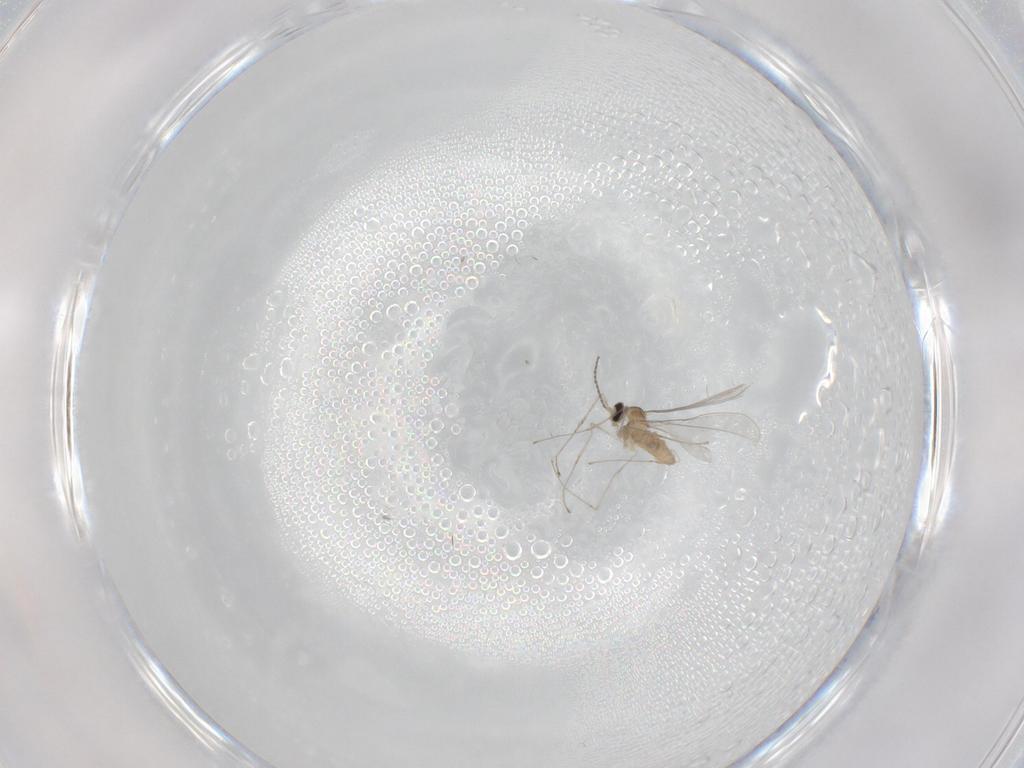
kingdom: Animalia
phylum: Arthropoda
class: Insecta
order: Diptera
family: Cecidomyiidae
